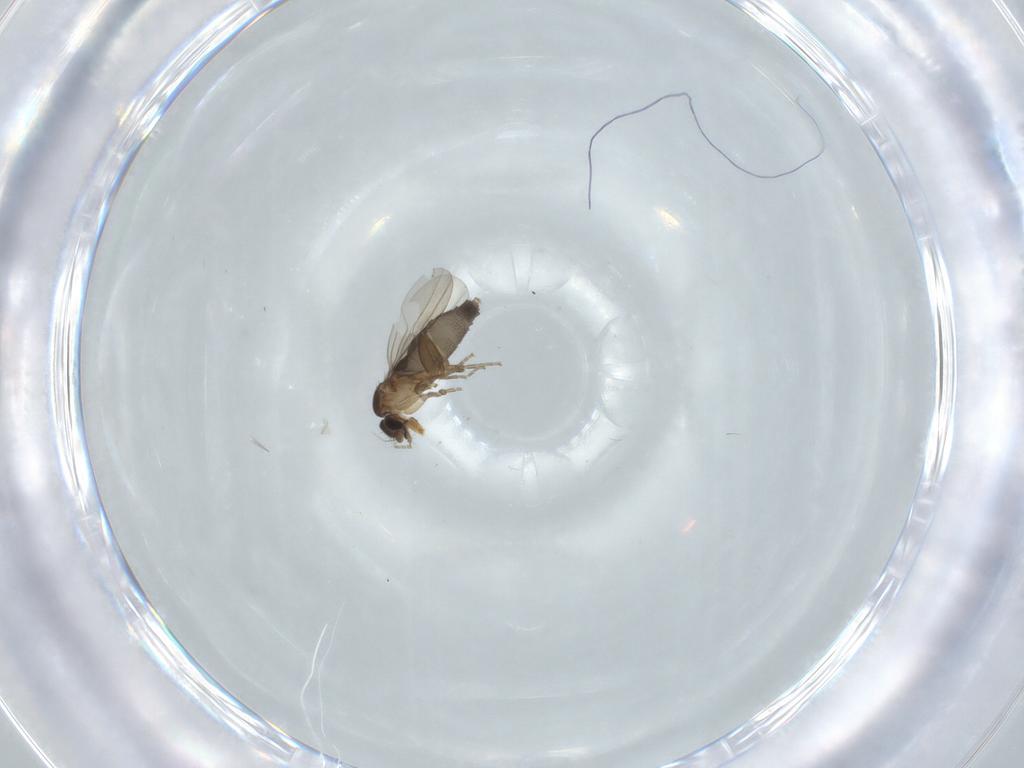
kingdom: Animalia
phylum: Arthropoda
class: Insecta
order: Diptera
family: Phoridae
